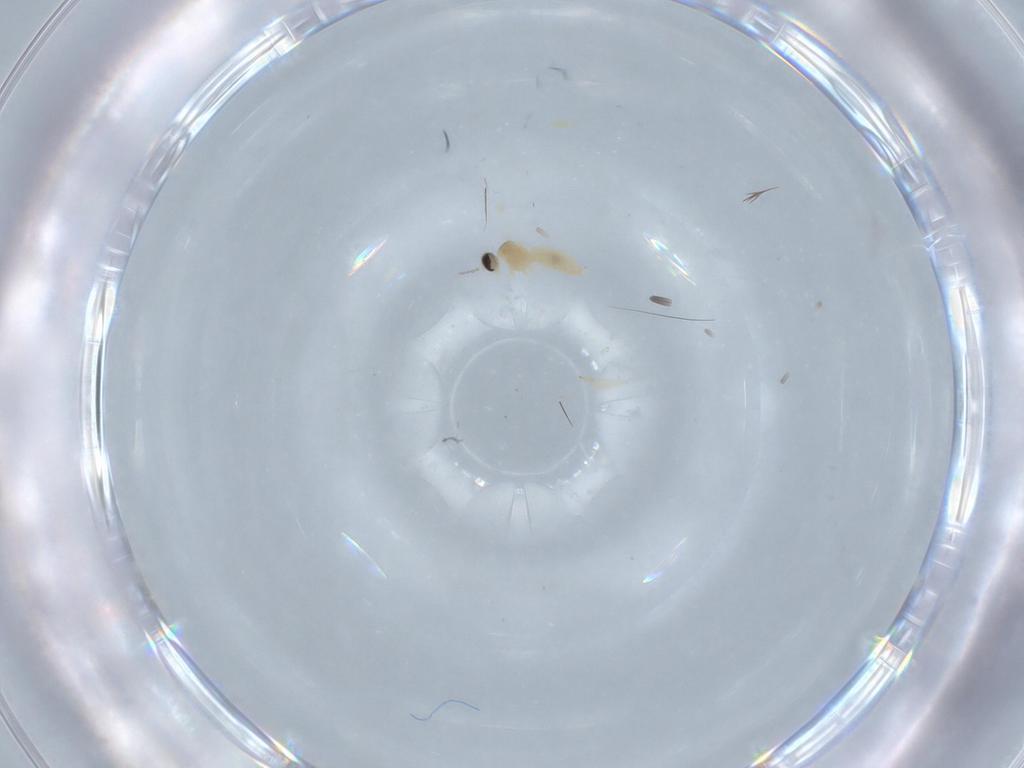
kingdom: Animalia
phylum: Arthropoda
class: Insecta
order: Diptera
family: Cecidomyiidae
